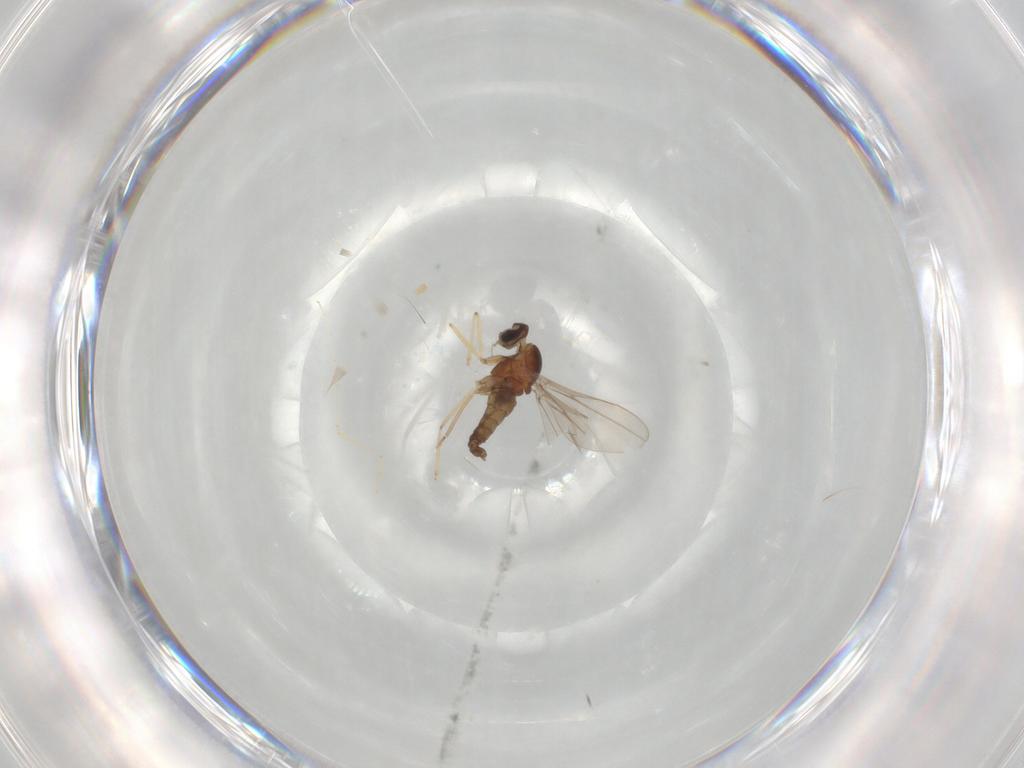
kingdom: Animalia
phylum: Arthropoda
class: Insecta
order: Diptera
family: Cecidomyiidae
